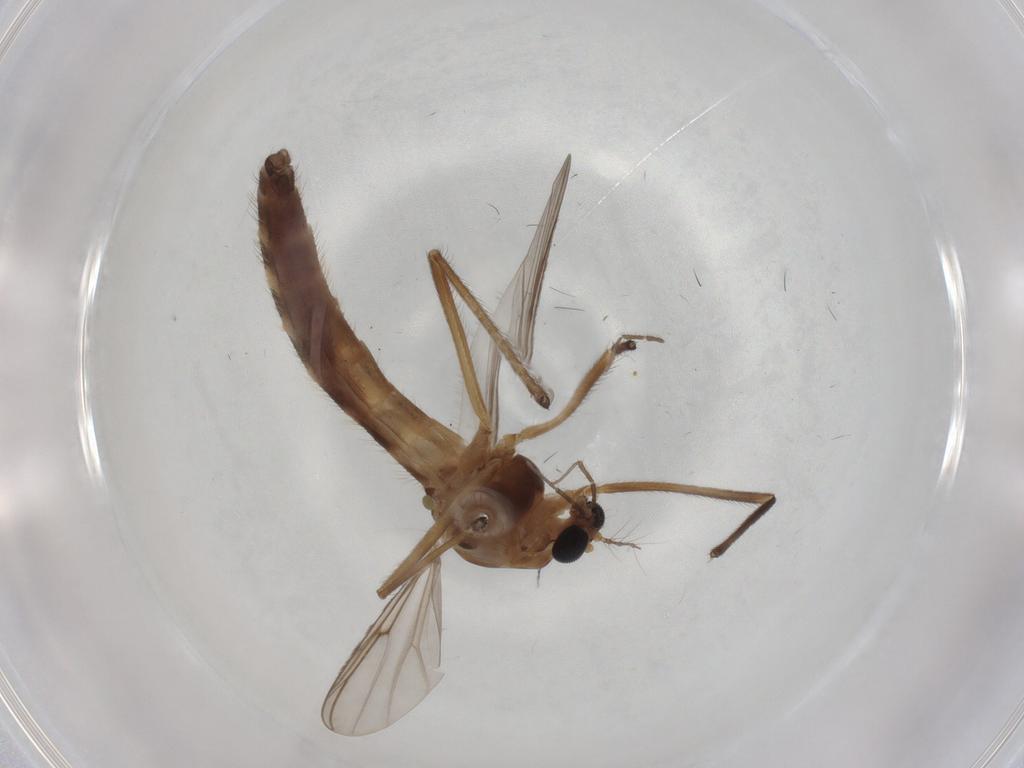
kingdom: Animalia
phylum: Arthropoda
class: Insecta
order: Diptera
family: Chironomidae
